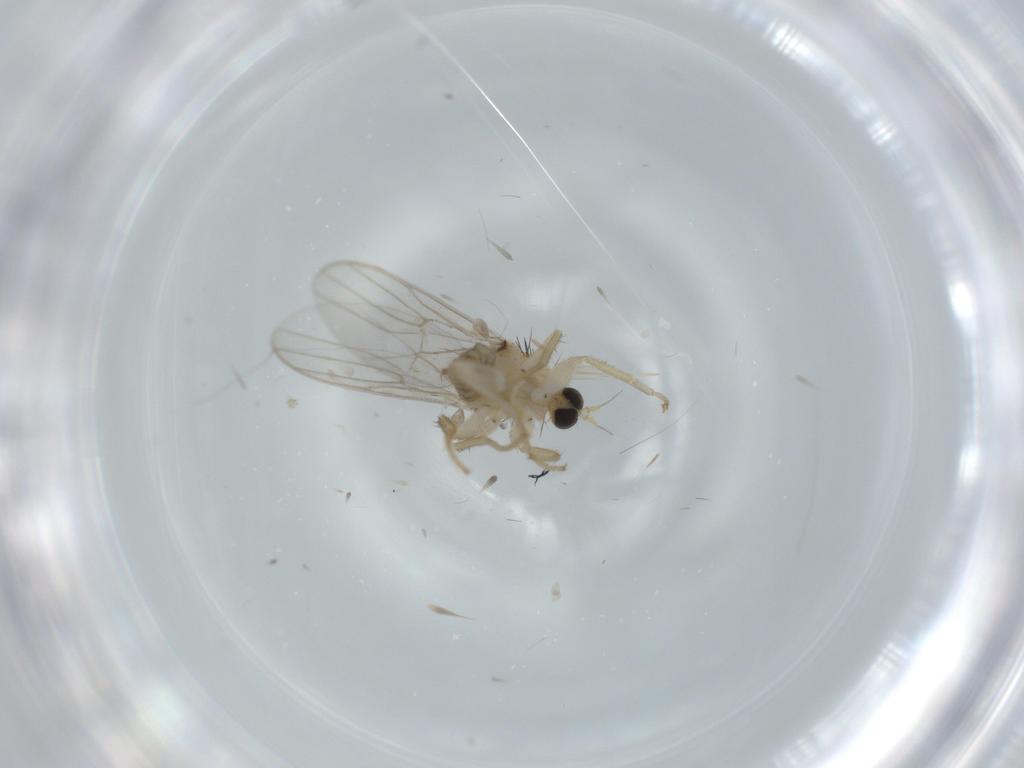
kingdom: Animalia
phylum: Arthropoda
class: Insecta
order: Diptera
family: Hybotidae
